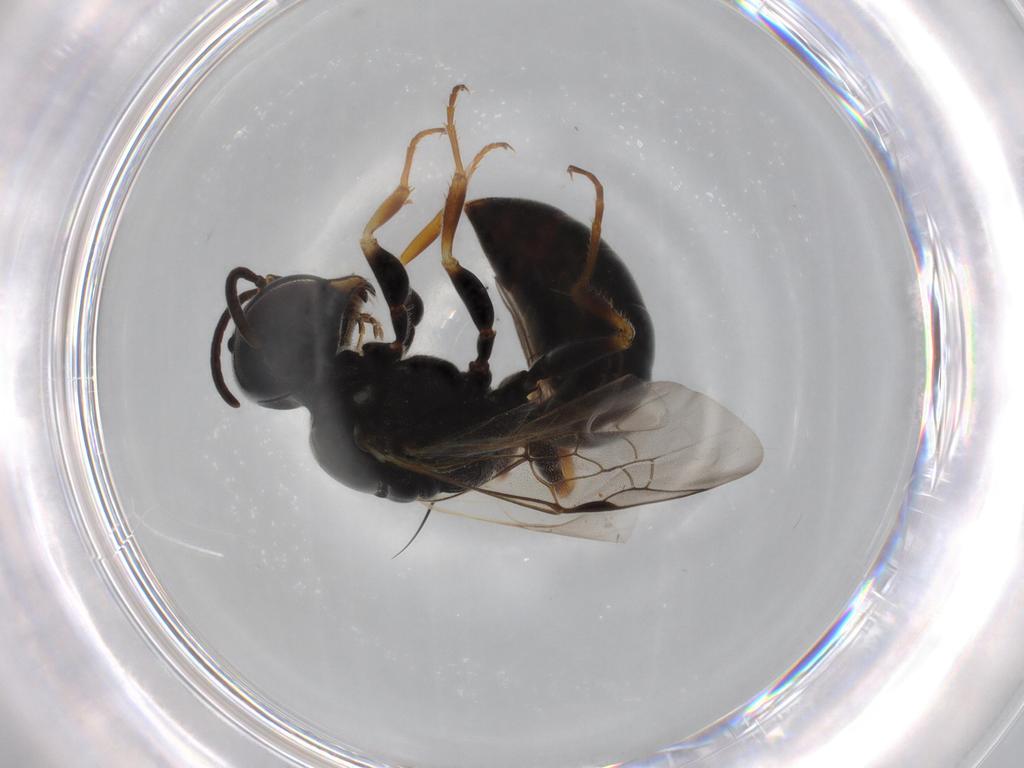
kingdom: Animalia
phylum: Arthropoda
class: Insecta
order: Hymenoptera
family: Crabronidae
